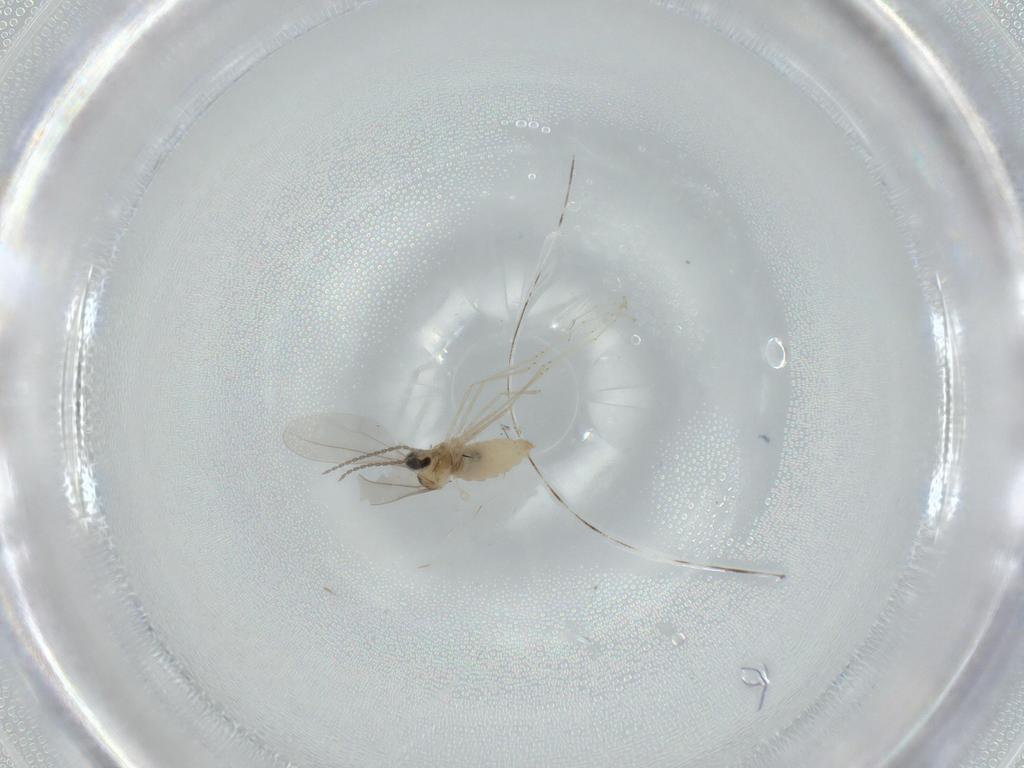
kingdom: Animalia
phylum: Arthropoda
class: Insecta
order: Diptera
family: Cecidomyiidae
